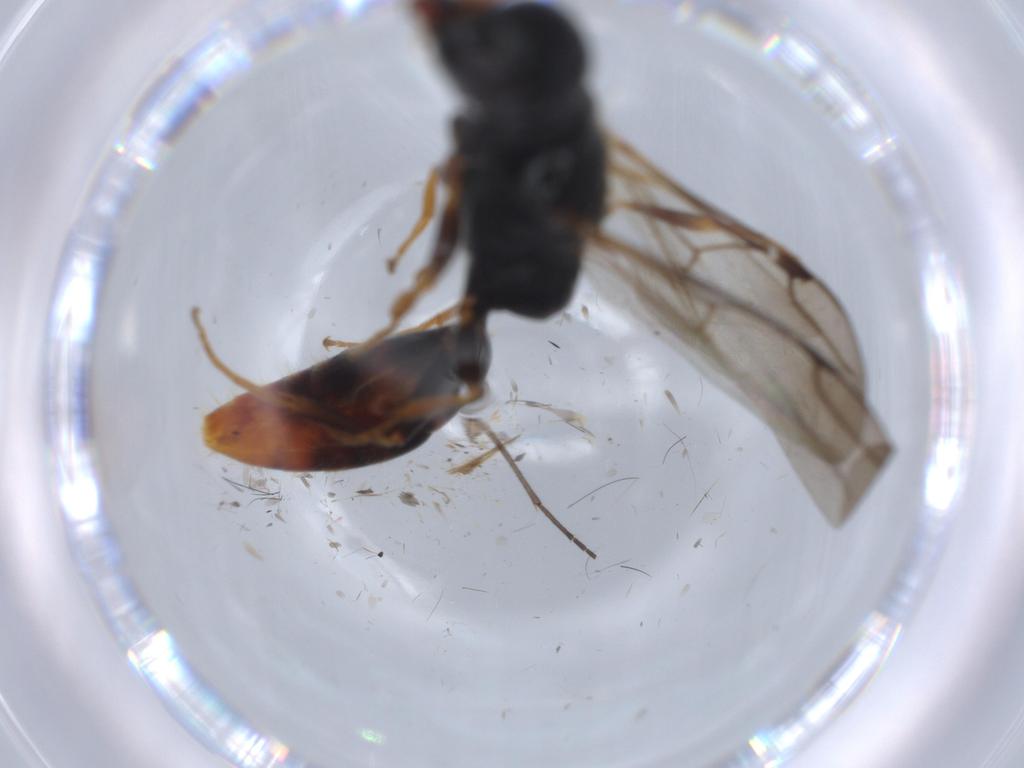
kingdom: Animalia
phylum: Arthropoda
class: Insecta
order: Hymenoptera
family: Bethylidae
